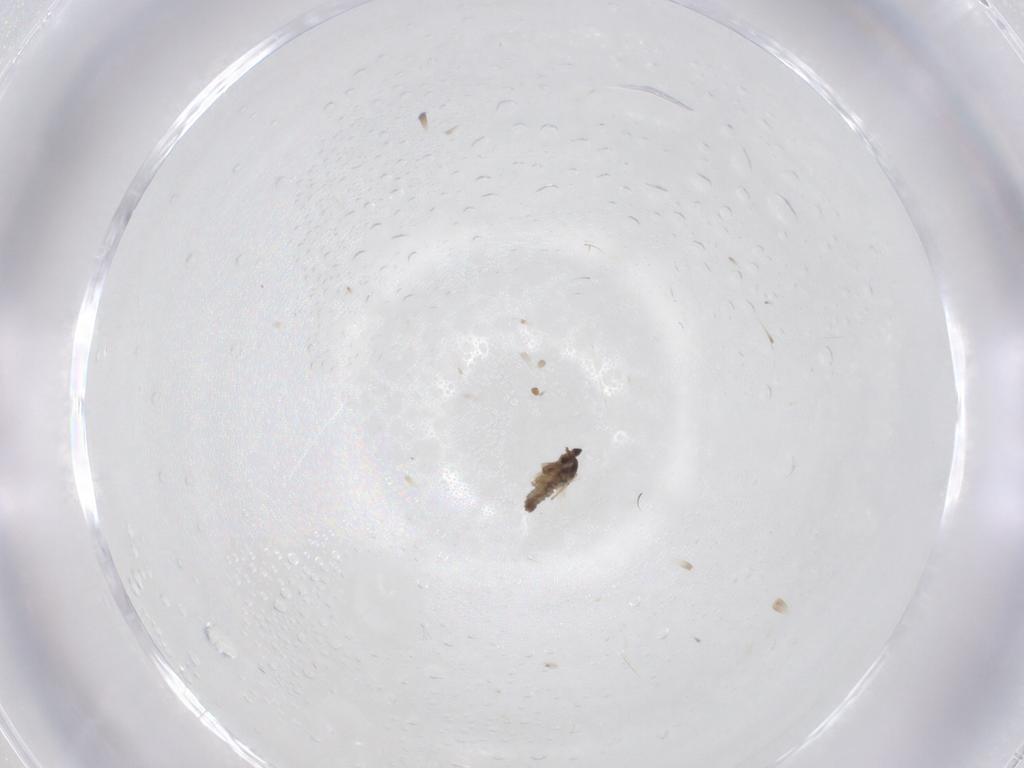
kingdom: Animalia
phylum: Arthropoda
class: Insecta
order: Diptera
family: Cecidomyiidae
